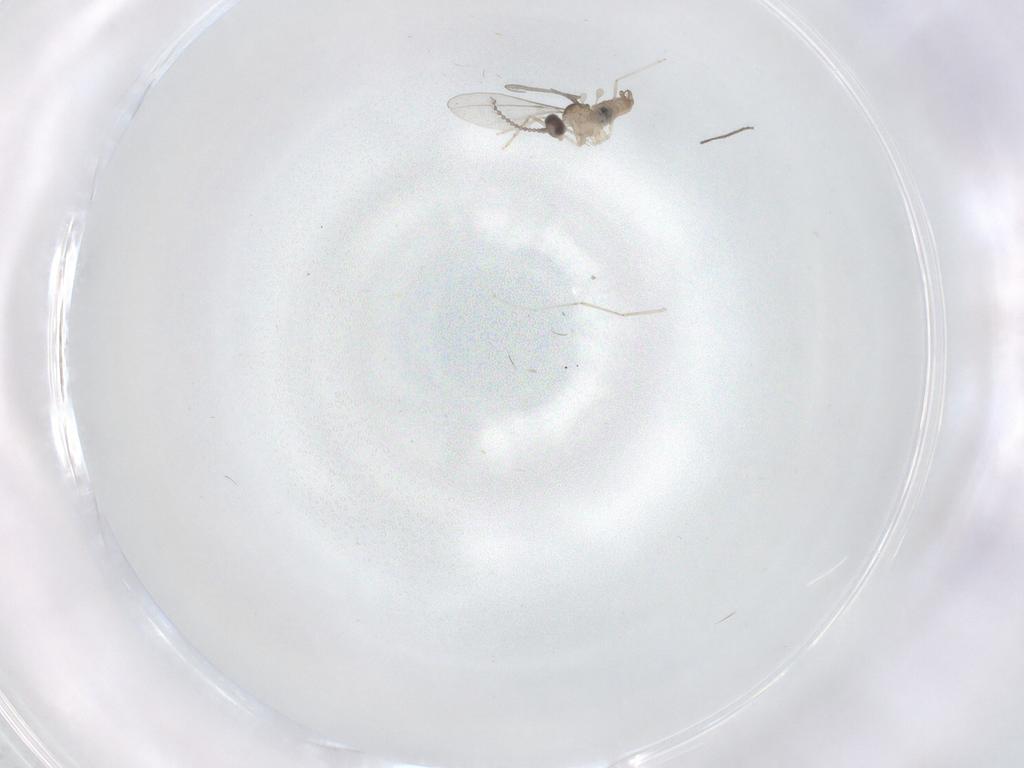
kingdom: Animalia
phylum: Arthropoda
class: Insecta
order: Diptera
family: Cecidomyiidae
